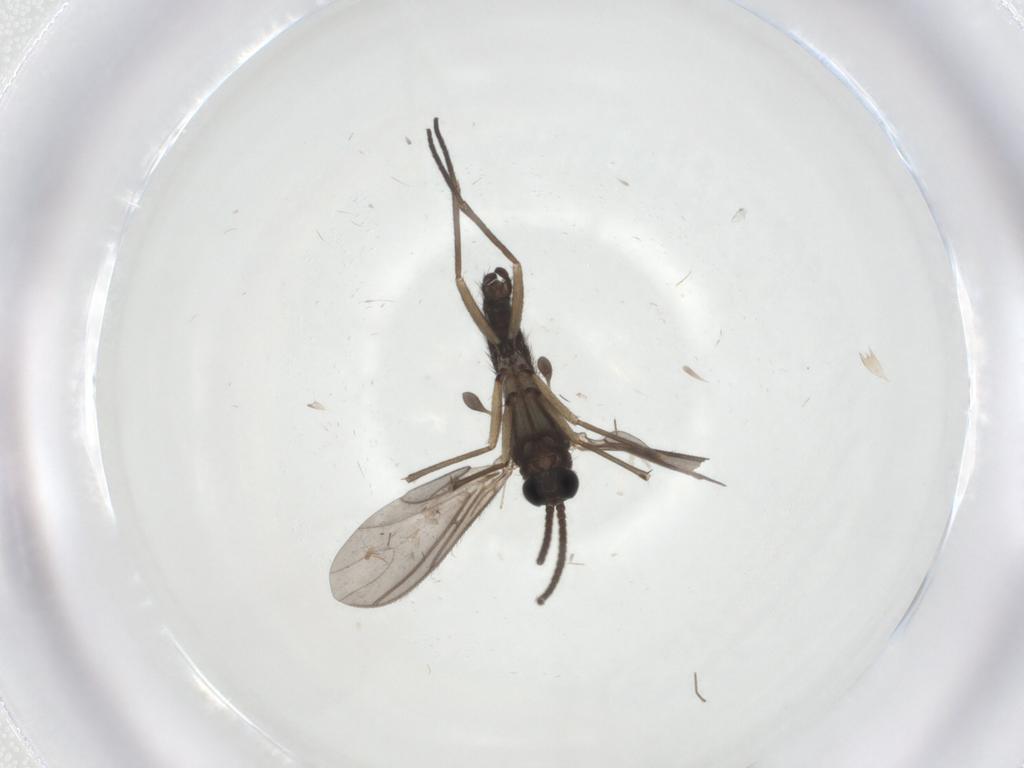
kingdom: Animalia
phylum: Arthropoda
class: Insecta
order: Diptera
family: Sciaridae
